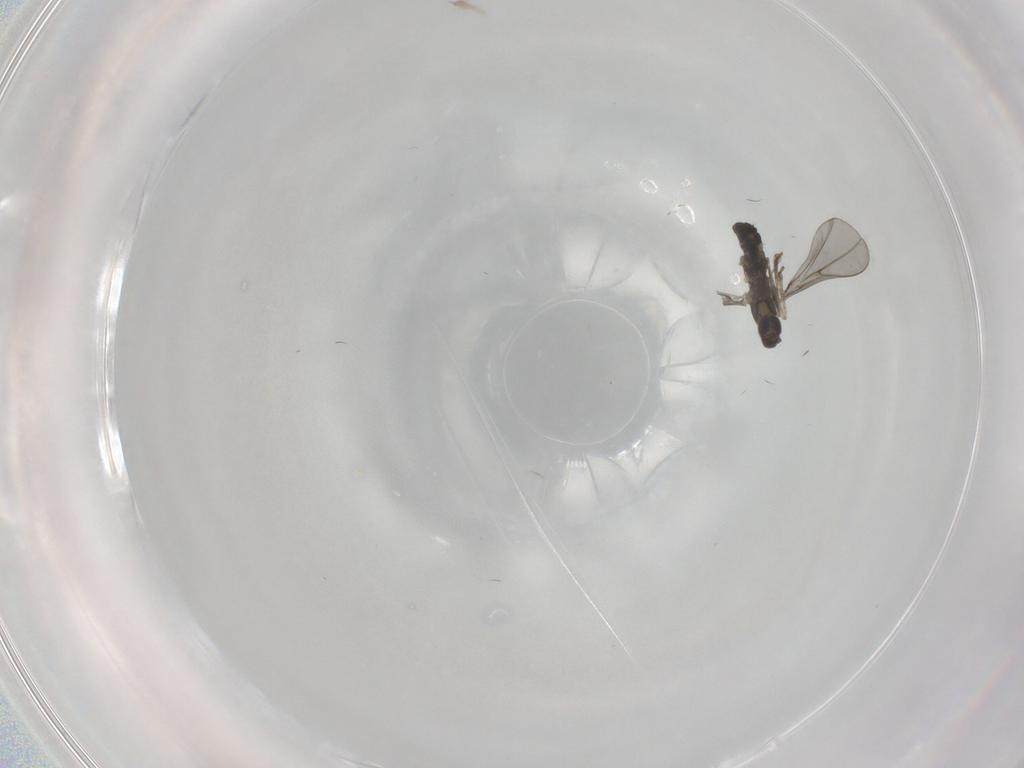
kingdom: Animalia
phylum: Arthropoda
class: Insecta
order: Diptera
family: Cecidomyiidae
